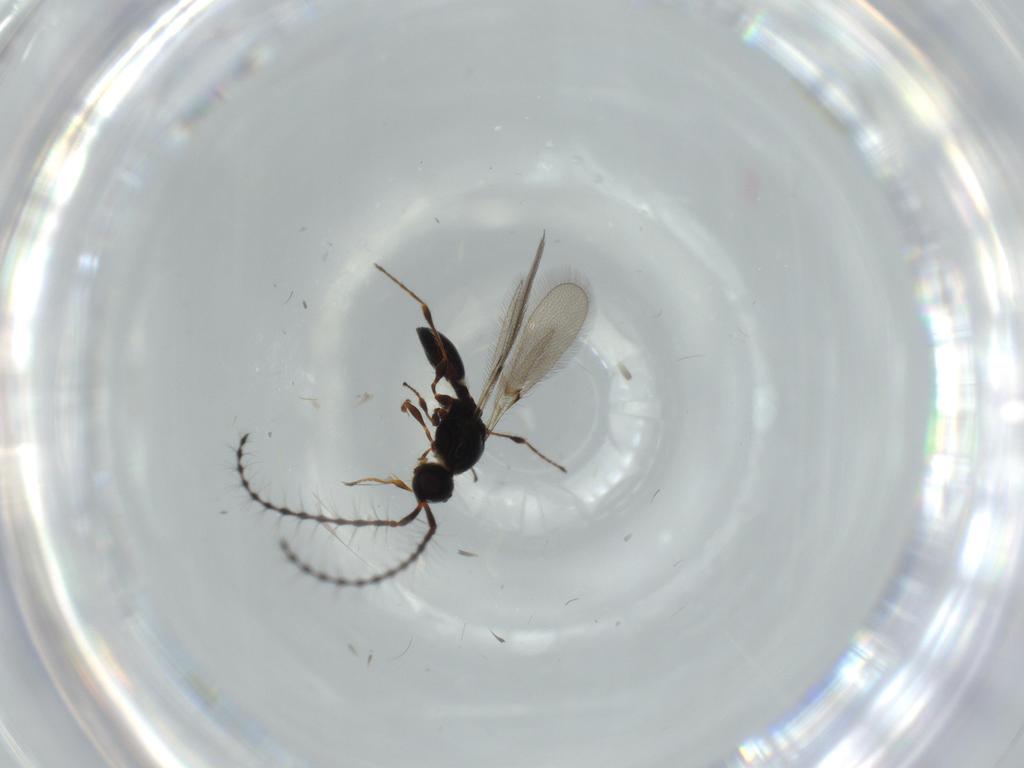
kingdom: Animalia
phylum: Arthropoda
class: Insecta
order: Hymenoptera
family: Diapriidae
